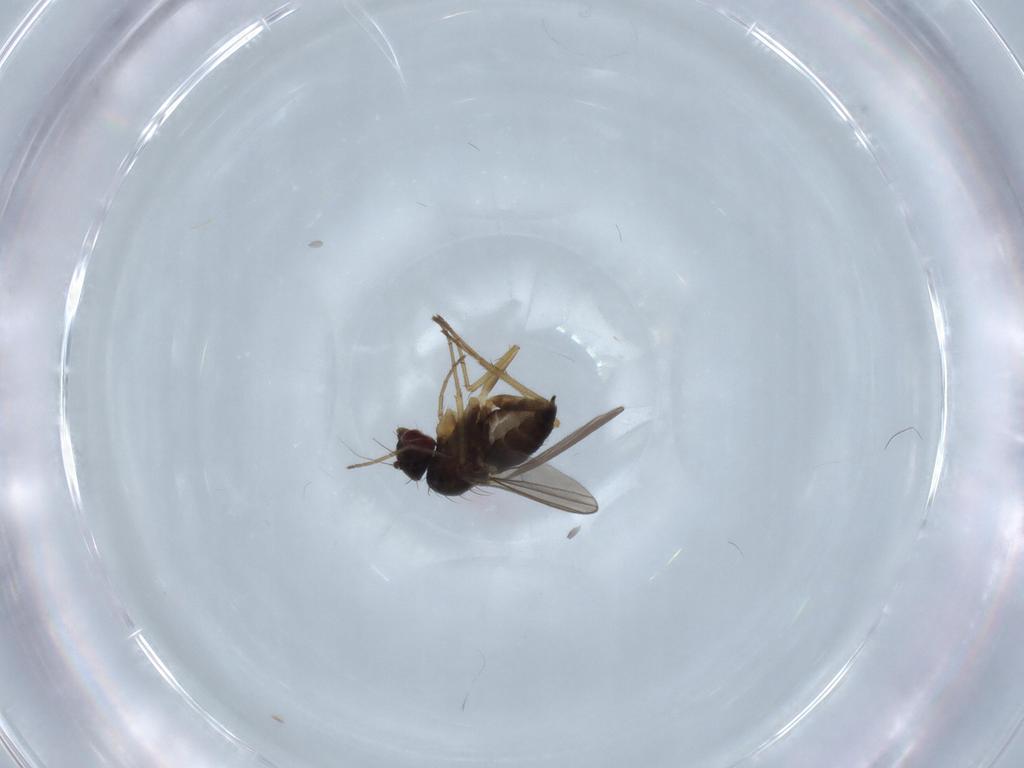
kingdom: Animalia
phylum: Arthropoda
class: Insecta
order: Diptera
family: Dolichopodidae
